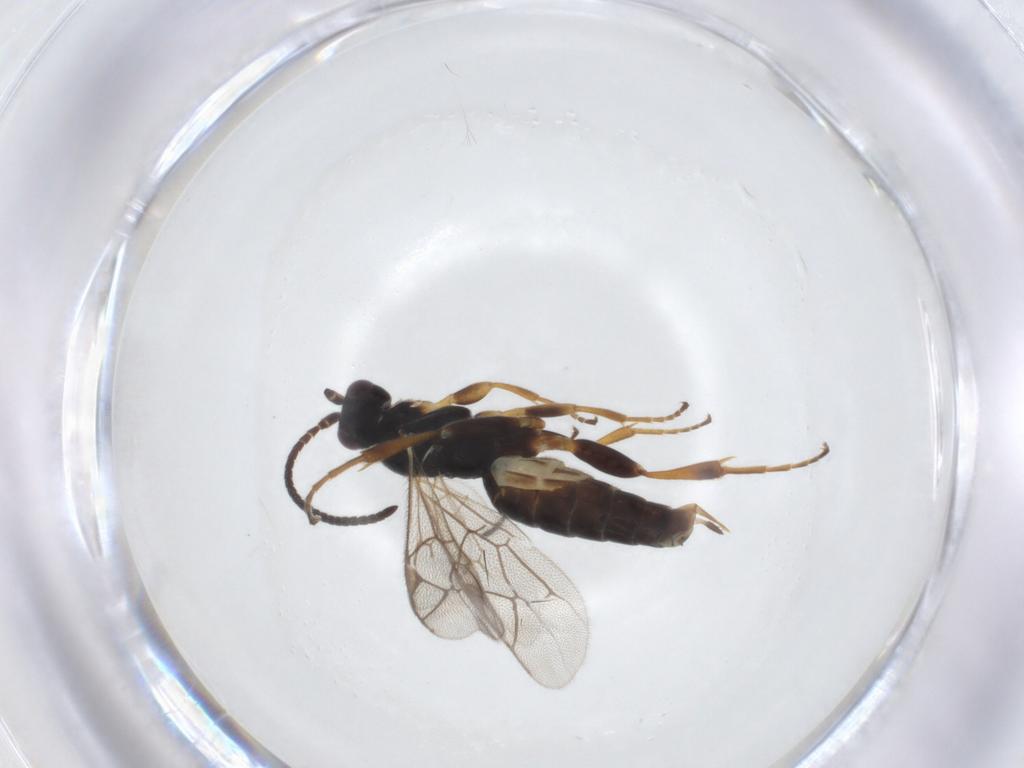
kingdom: Animalia
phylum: Arthropoda
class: Insecta
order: Hymenoptera
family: Ichneumonidae
